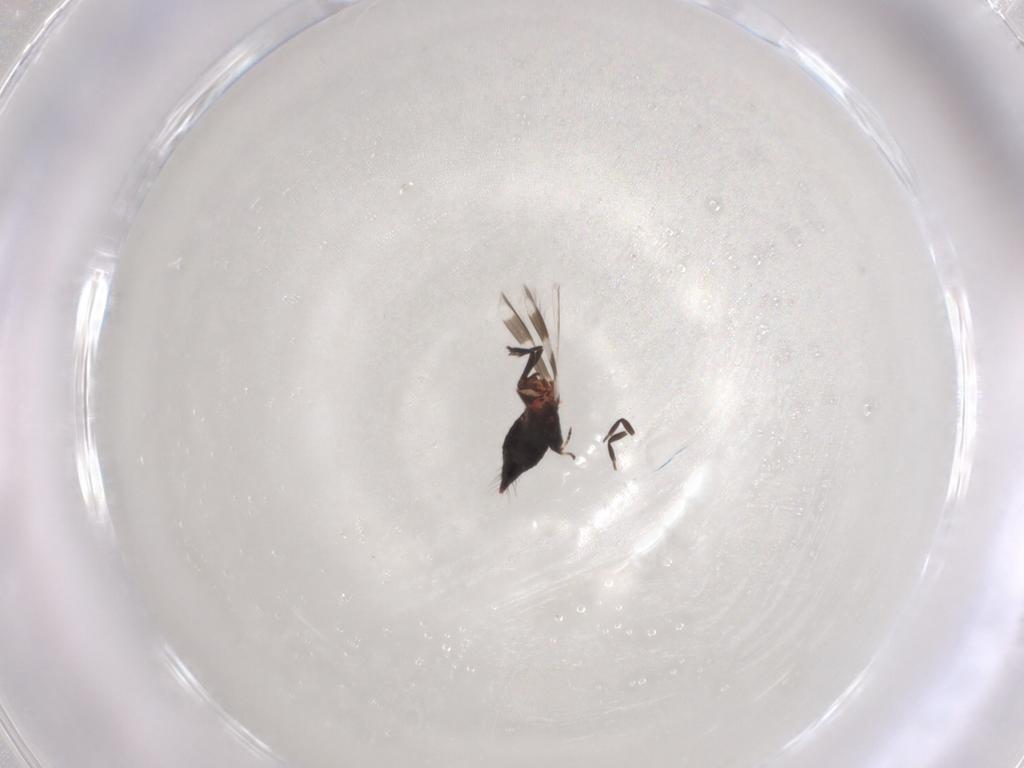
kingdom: Animalia
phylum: Arthropoda
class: Insecta
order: Thysanoptera
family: Aeolothripidae
